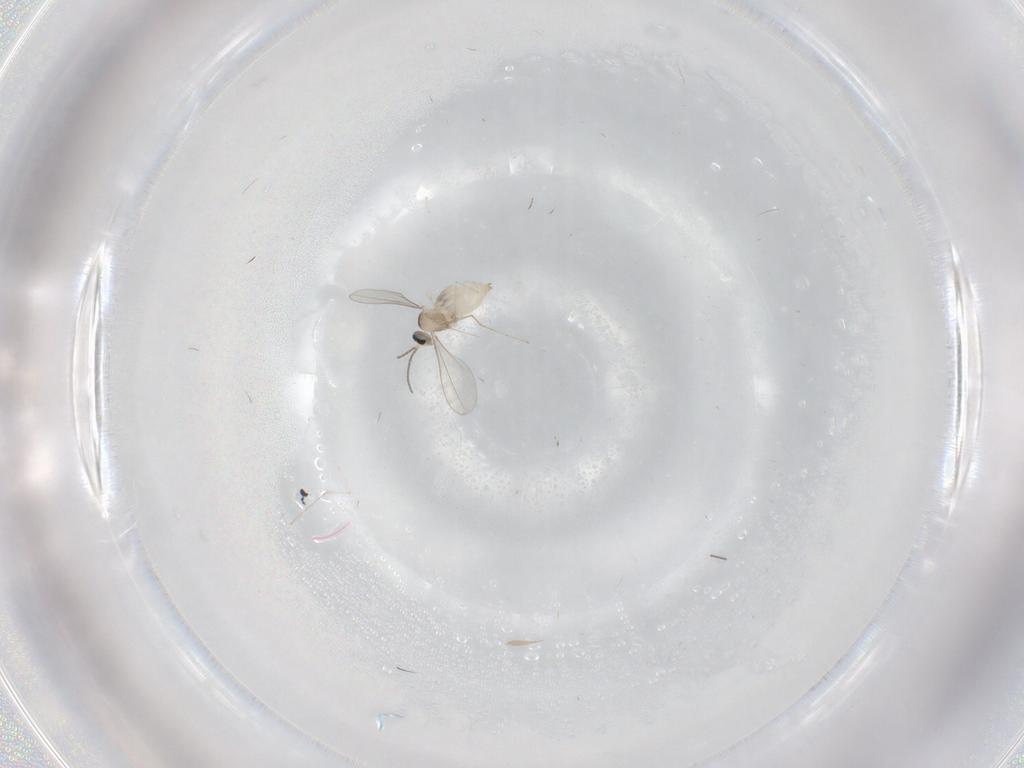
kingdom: Animalia
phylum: Arthropoda
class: Insecta
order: Diptera
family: Cecidomyiidae
